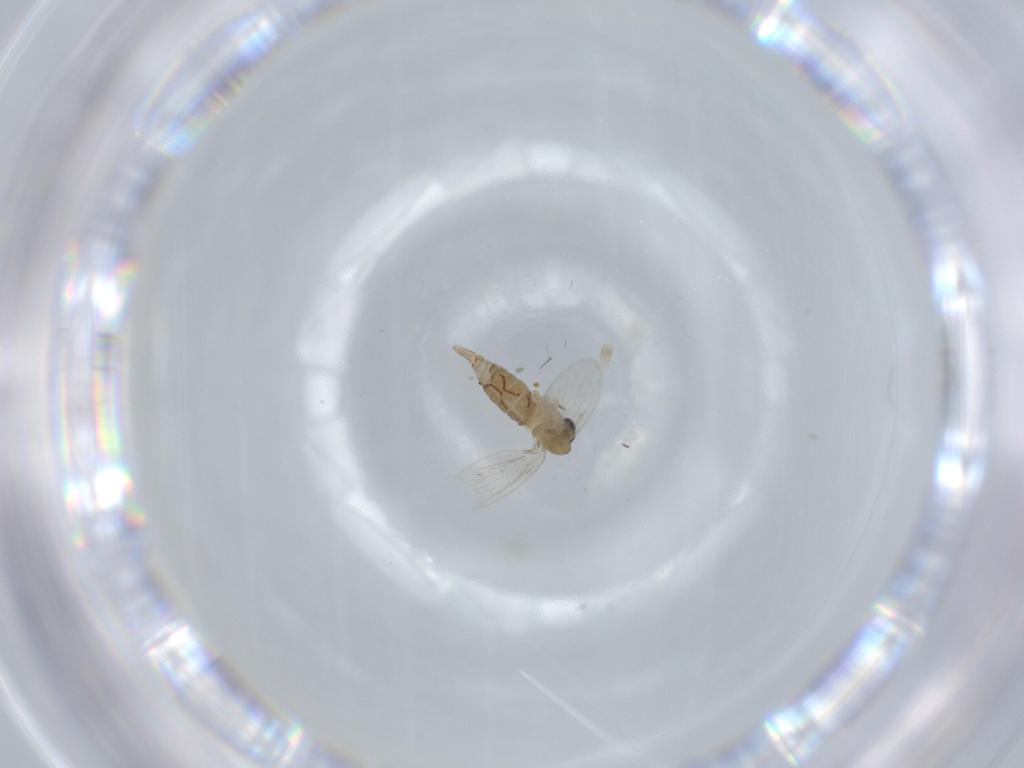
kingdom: Animalia
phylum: Arthropoda
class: Insecta
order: Diptera
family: Psychodidae
